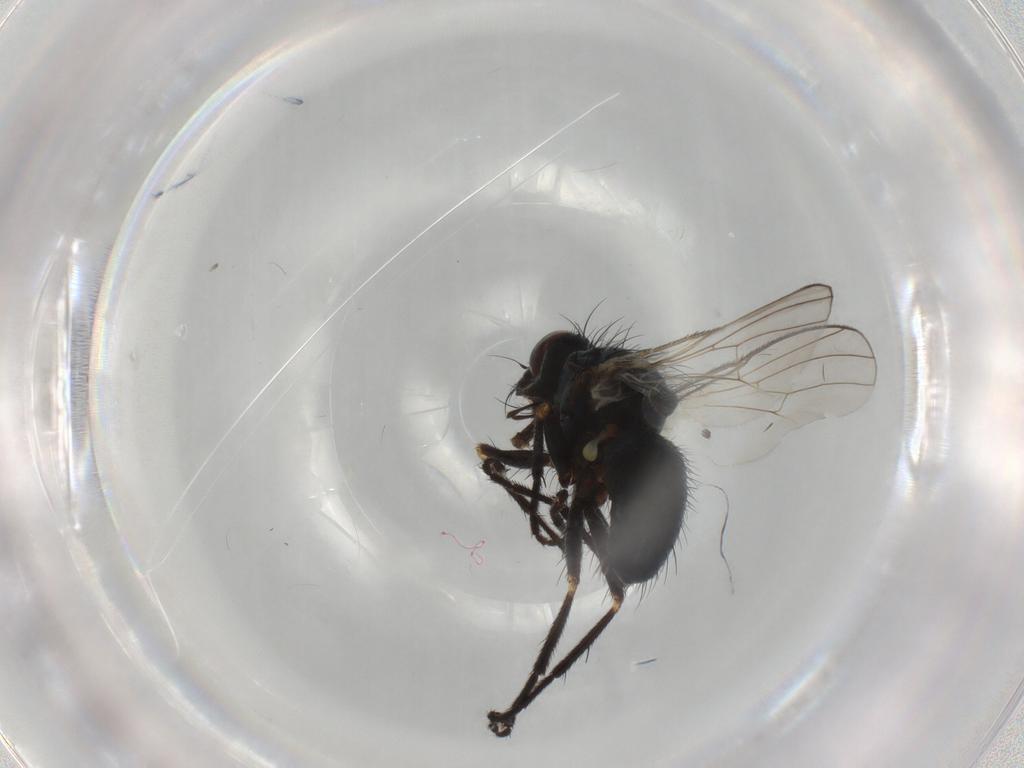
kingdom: Animalia
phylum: Arthropoda
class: Insecta
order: Diptera
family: Muscidae
